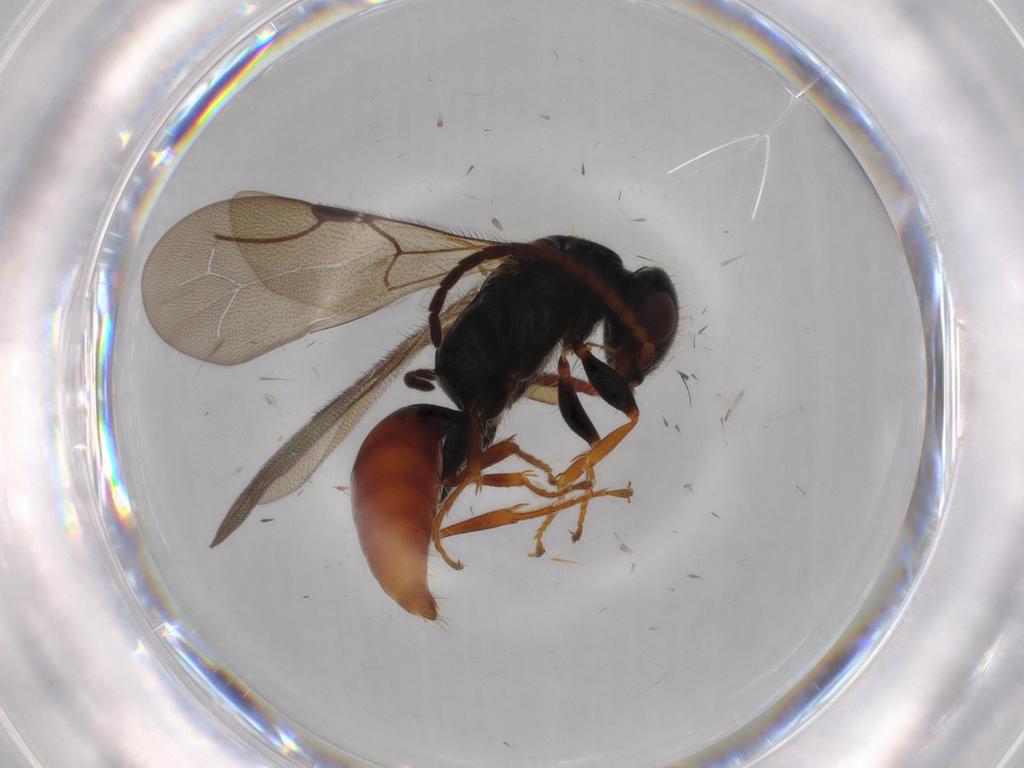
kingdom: Animalia
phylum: Arthropoda
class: Insecta
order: Hymenoptera
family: Bethylidae
